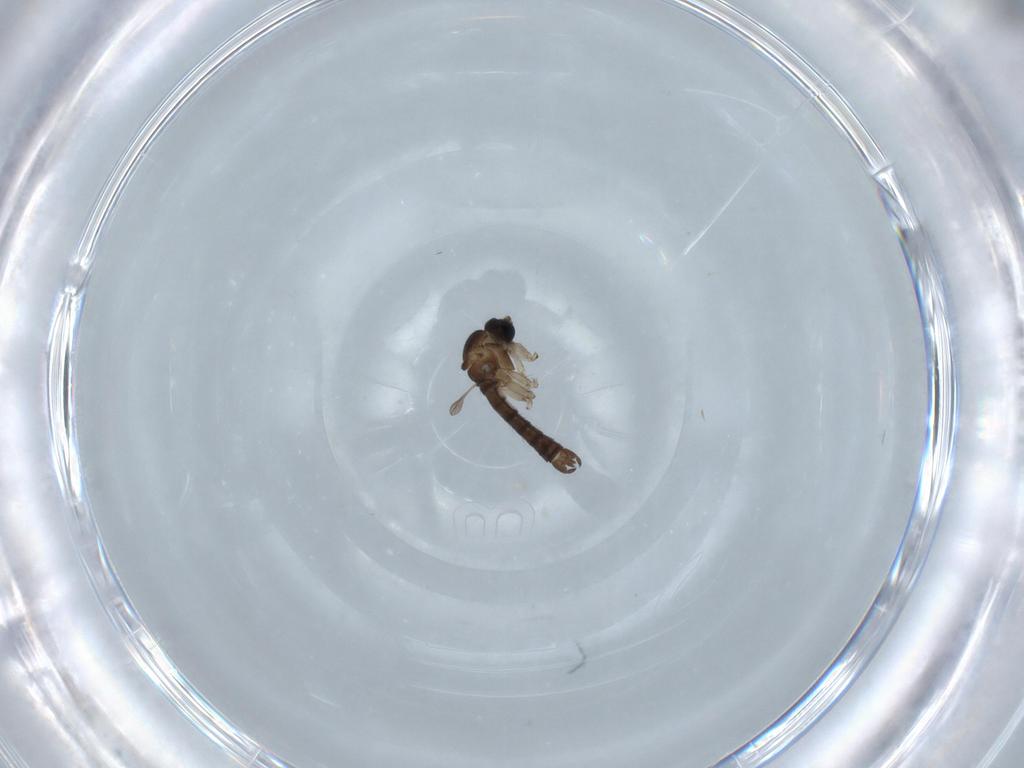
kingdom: Animalia
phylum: Arthropoda
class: Insecta
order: Diptera
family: Sciaridae
